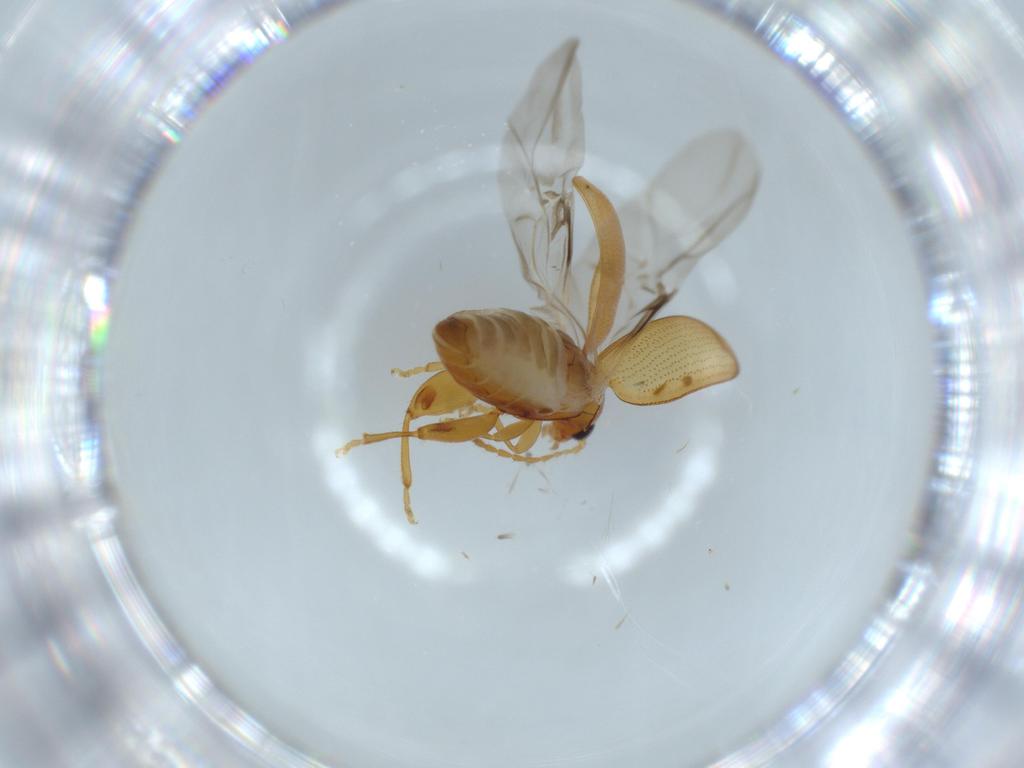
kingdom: Animalia
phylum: Arthropoda
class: Insecta
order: Coleoptera
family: Chrysomelidae
